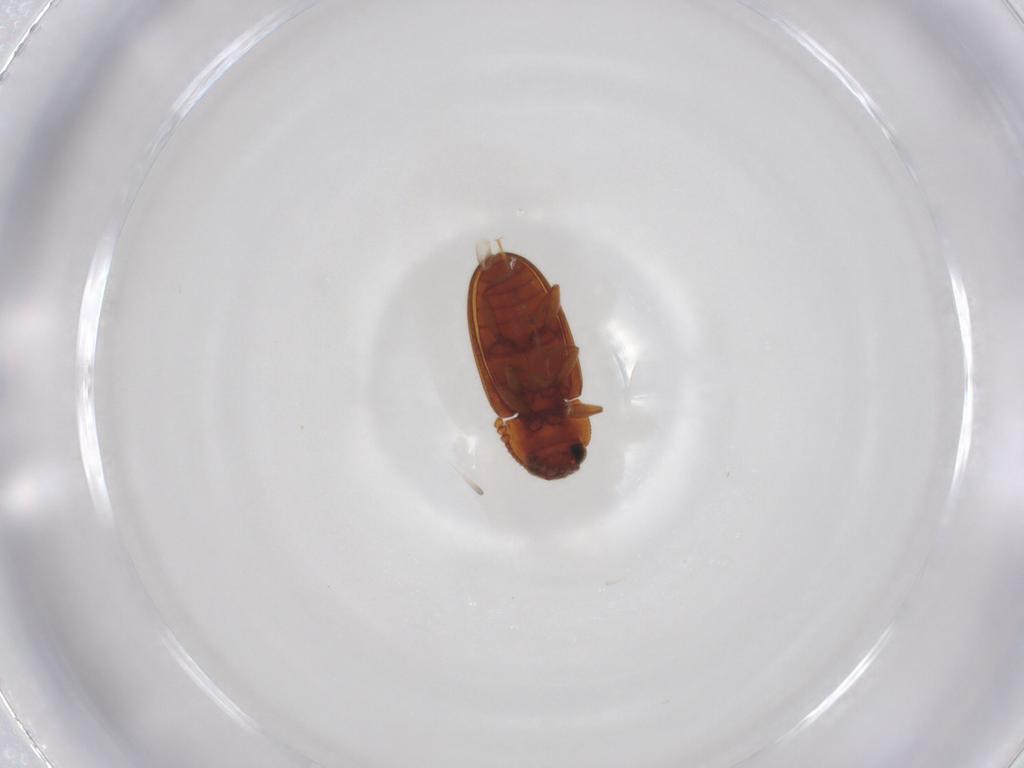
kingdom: Animalia
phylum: Arthropoda
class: Insecta
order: Coleoptera
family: Erotylidae
